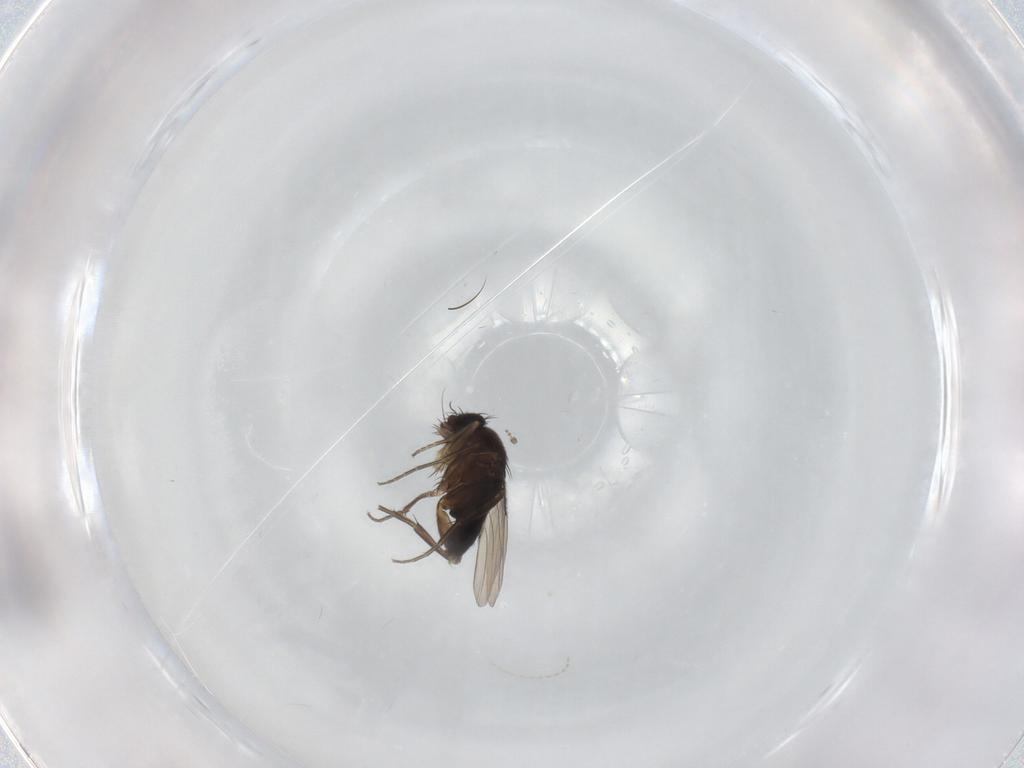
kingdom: Animalia
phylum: Arthropoda
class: Insecta
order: Diptera
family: Phoridae
